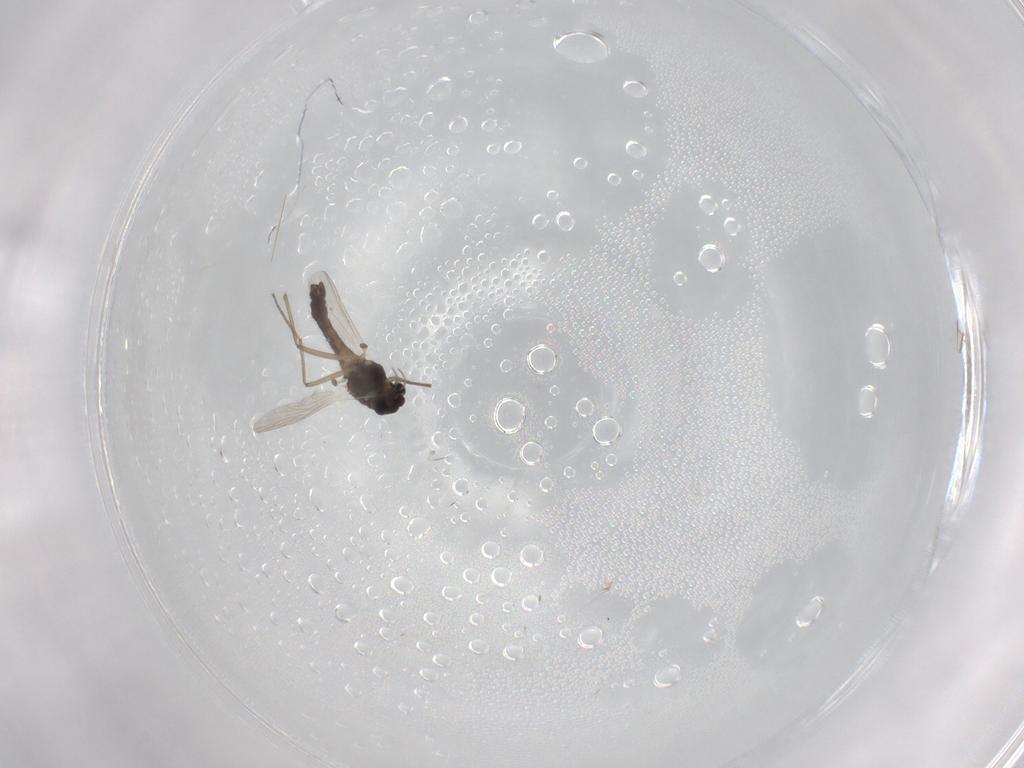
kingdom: Animalia
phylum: Arthropoda
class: Insecta
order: Diptera
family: Chironomidae
